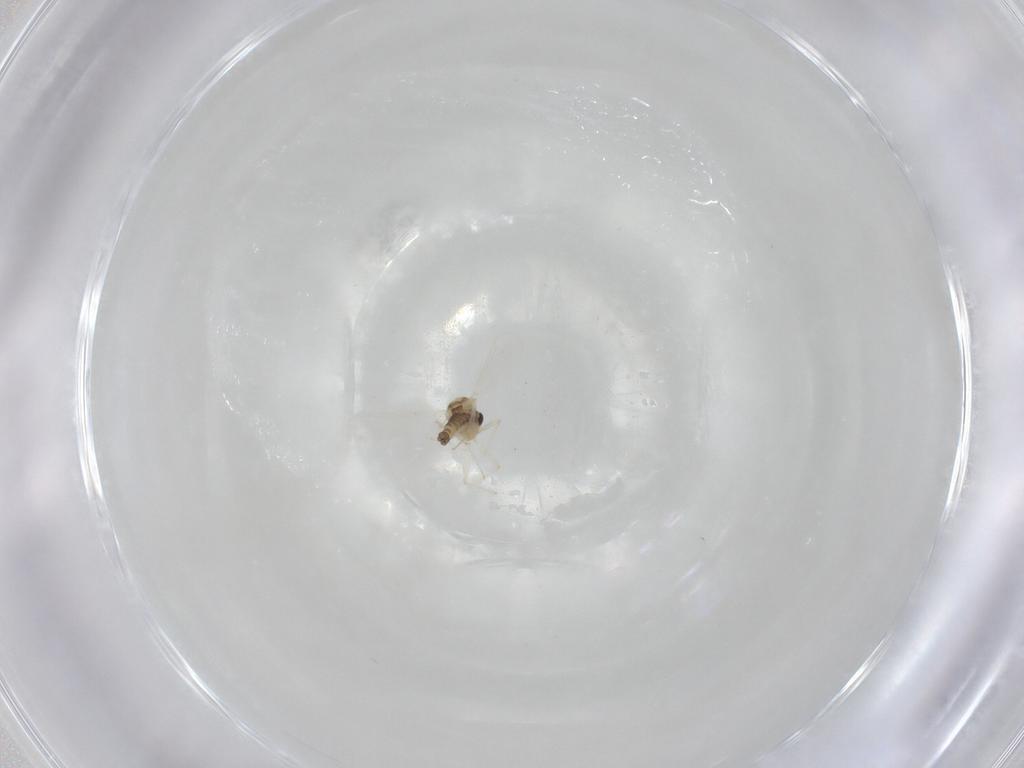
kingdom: Animalia
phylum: Arthropoda
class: Insecta
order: Diptera
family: Chironomidae
